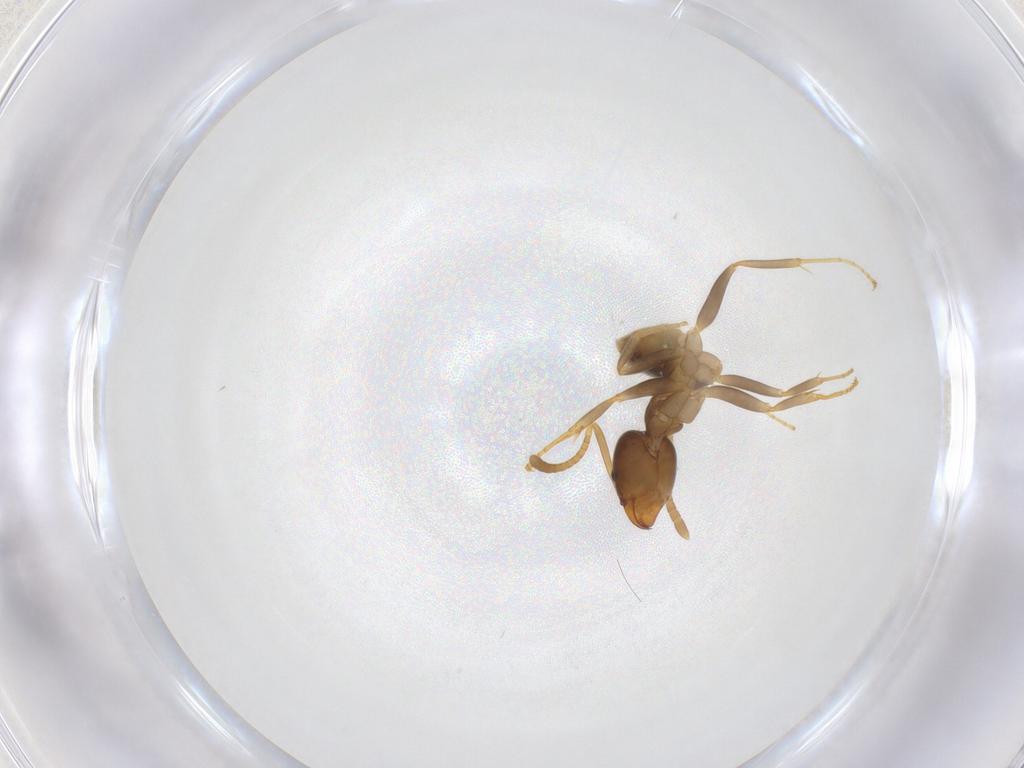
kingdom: Animalia
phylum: Arthropoda
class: Insecta
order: Hymenoptera
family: Formicidae
